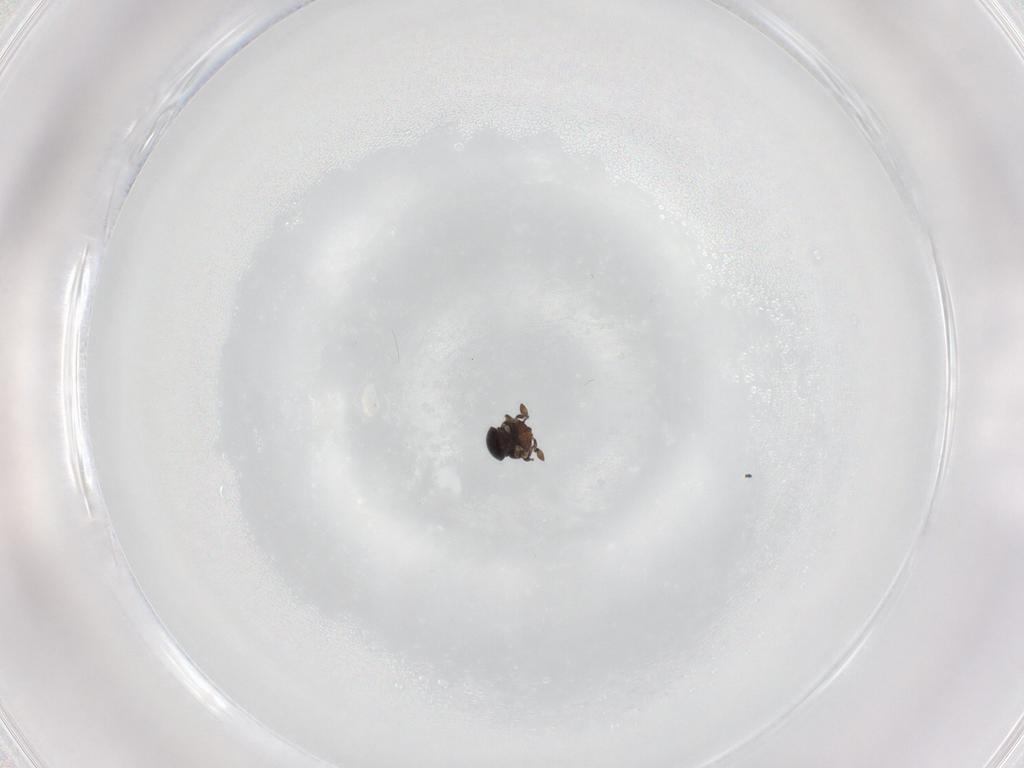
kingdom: Animalia
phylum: Arthropoda
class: Insecta
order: Hymenoptera
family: Scelionidae
